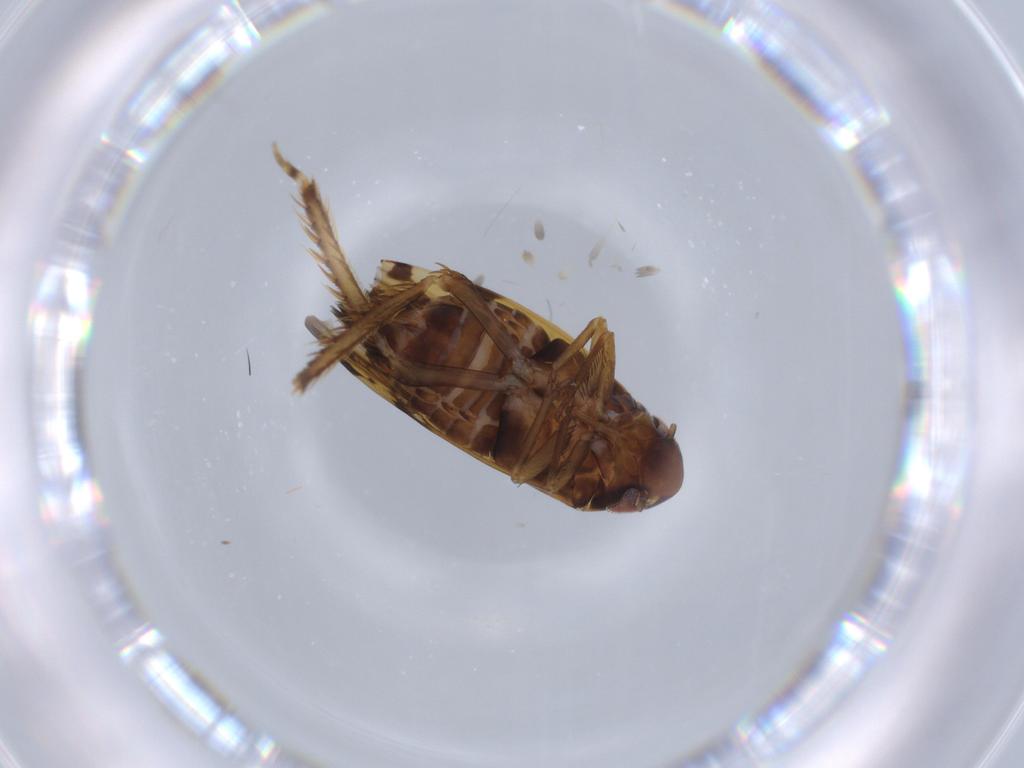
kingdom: Animalia
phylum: Arthropoda
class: Insecta
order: Hemiptera
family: Cicadellidae
